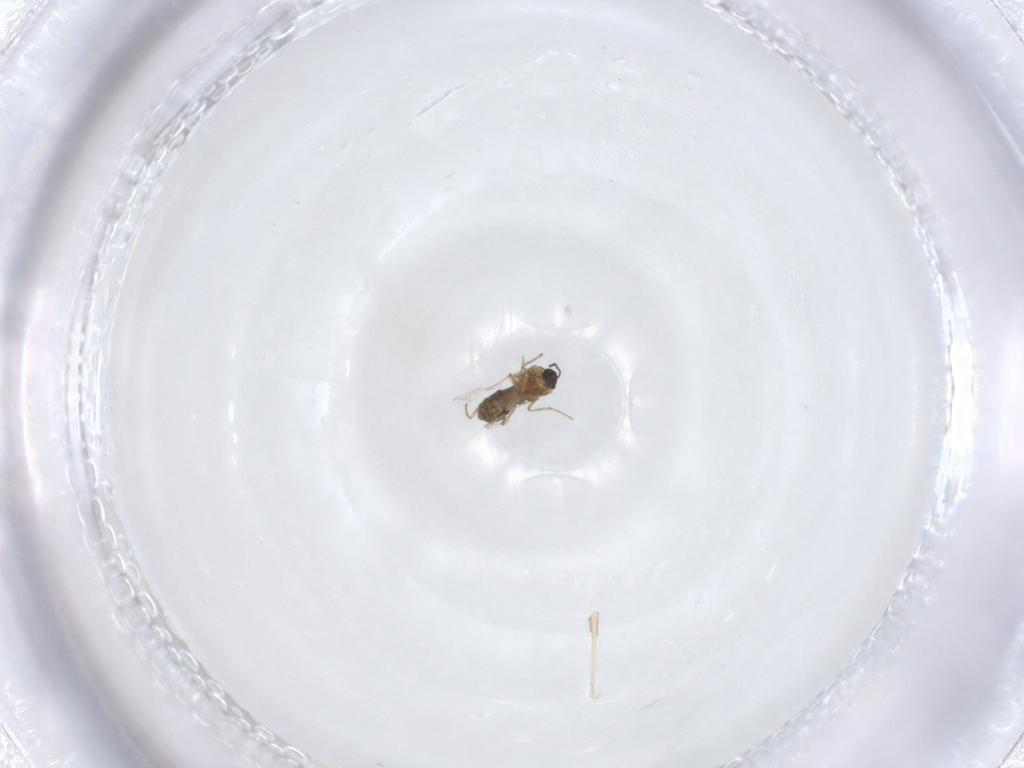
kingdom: Animalia
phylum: Arthropoda
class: Insecta
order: Diptera
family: Ceratopogonidae
